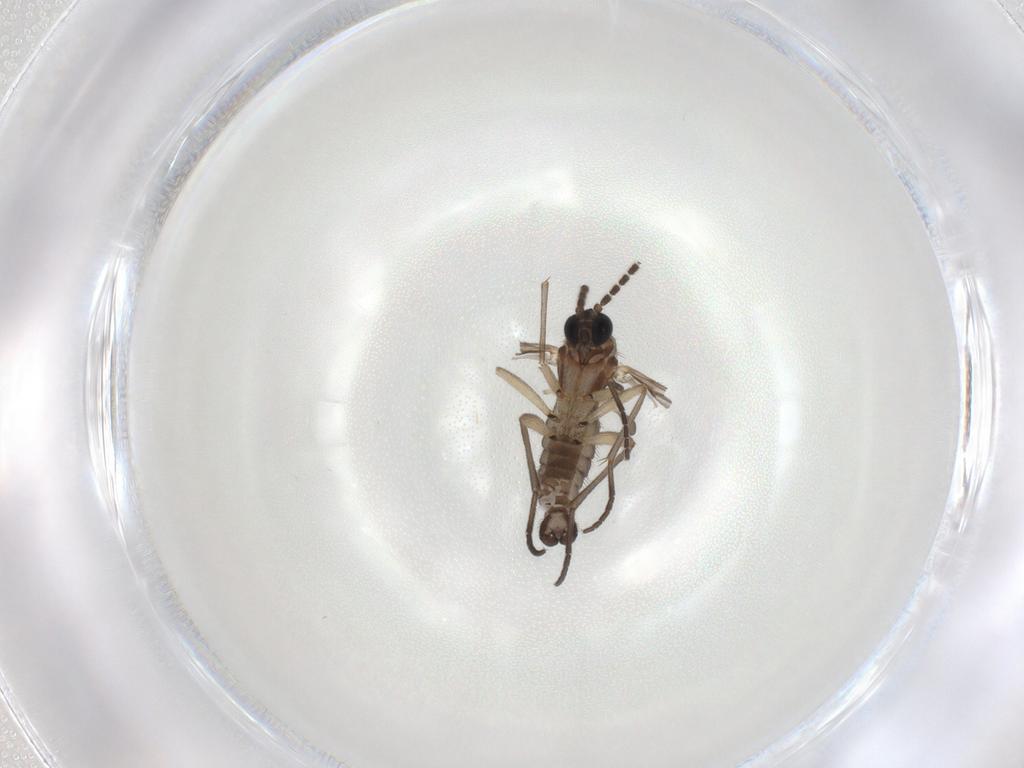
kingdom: Animalia
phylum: Arthropoda
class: Insecta
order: Diptera
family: Sciaridae
